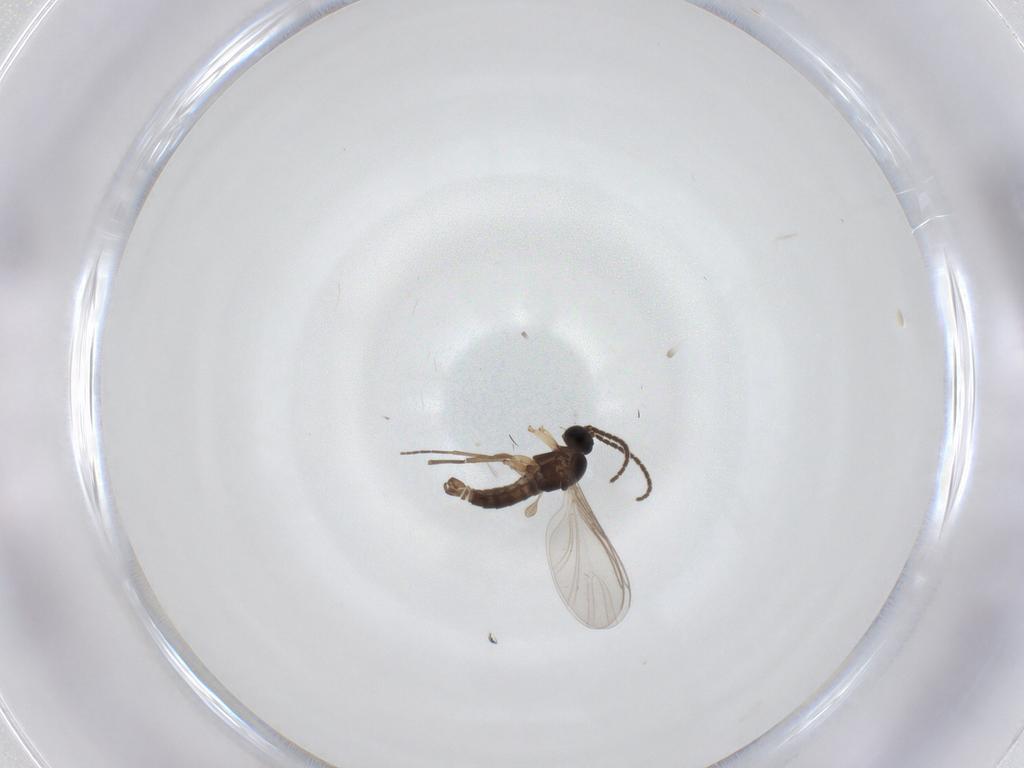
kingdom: Animalia
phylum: Arthropoda
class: Insecta
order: Diptera
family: Sciaridae
